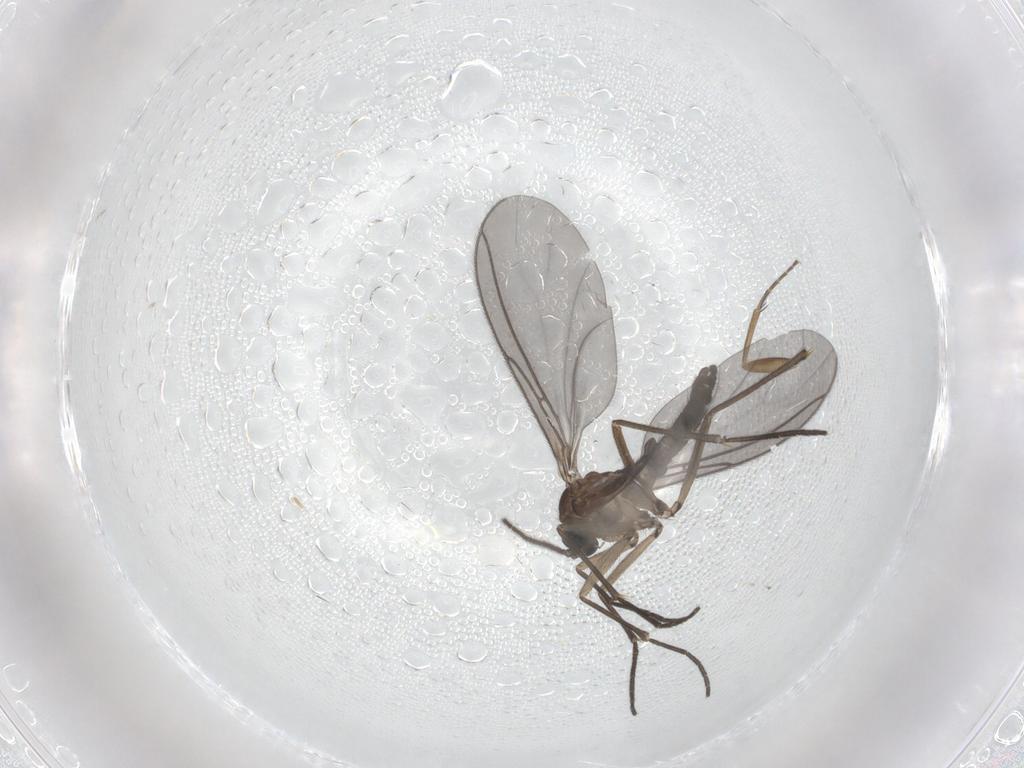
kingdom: Animalia
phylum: Arthropoda
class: Insecta
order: Diptera
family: Sciaridae
